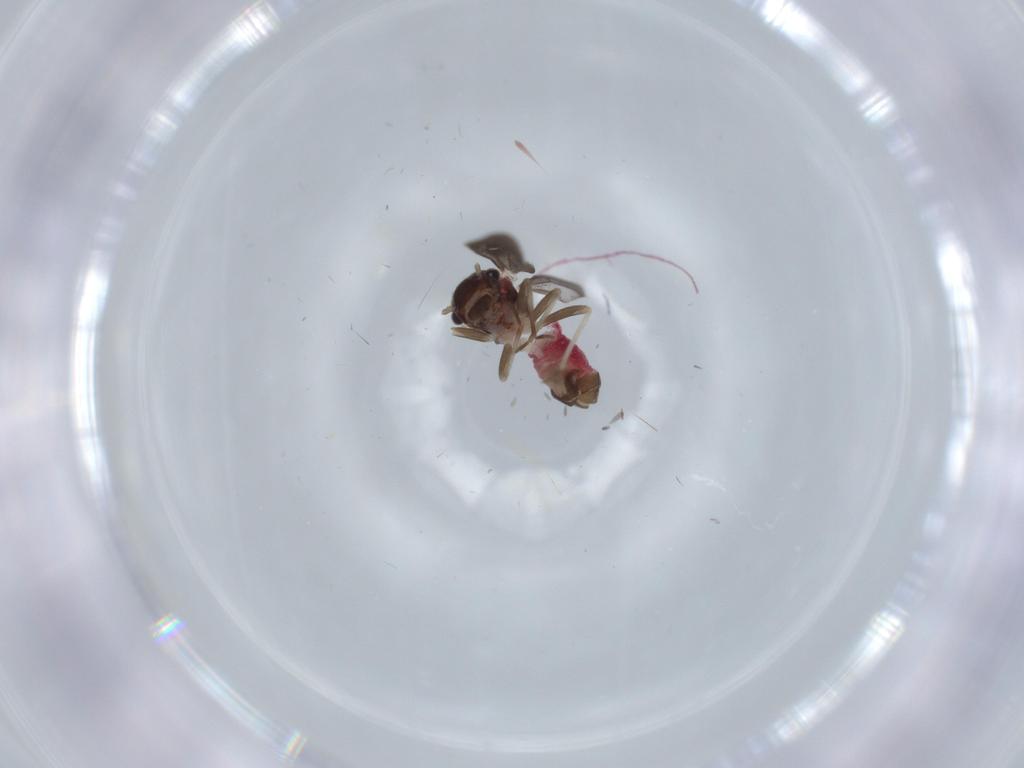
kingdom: Animalia
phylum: Arthropoda
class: Insecta
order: Psocodea
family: Asiopsocidae
